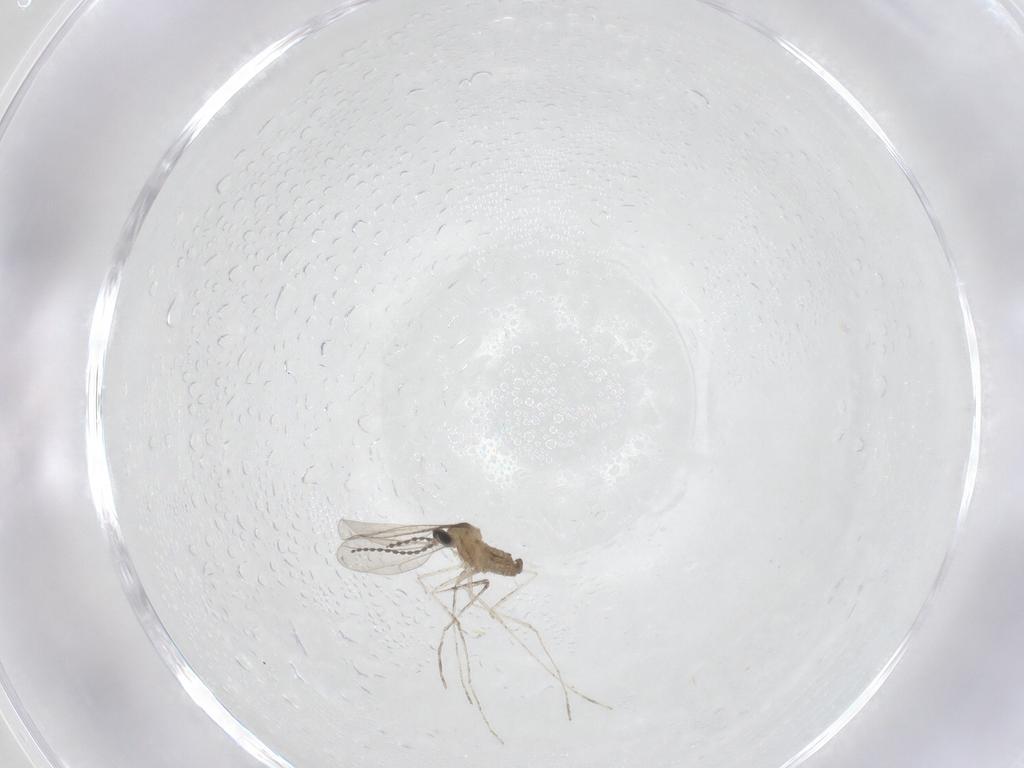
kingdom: Animalia
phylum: Arthropoda
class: Insecta
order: Diptera
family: Cecidomyiidae
